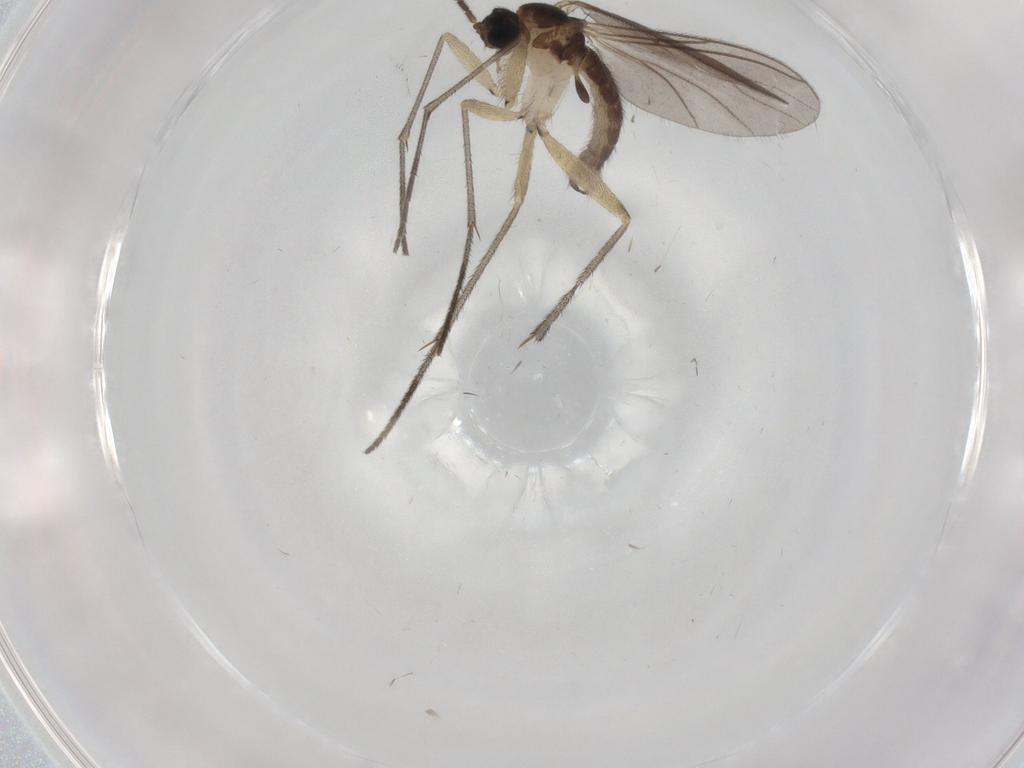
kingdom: Animalia
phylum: Arthropoda
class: Insecta
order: Diptera
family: Sciaridae
